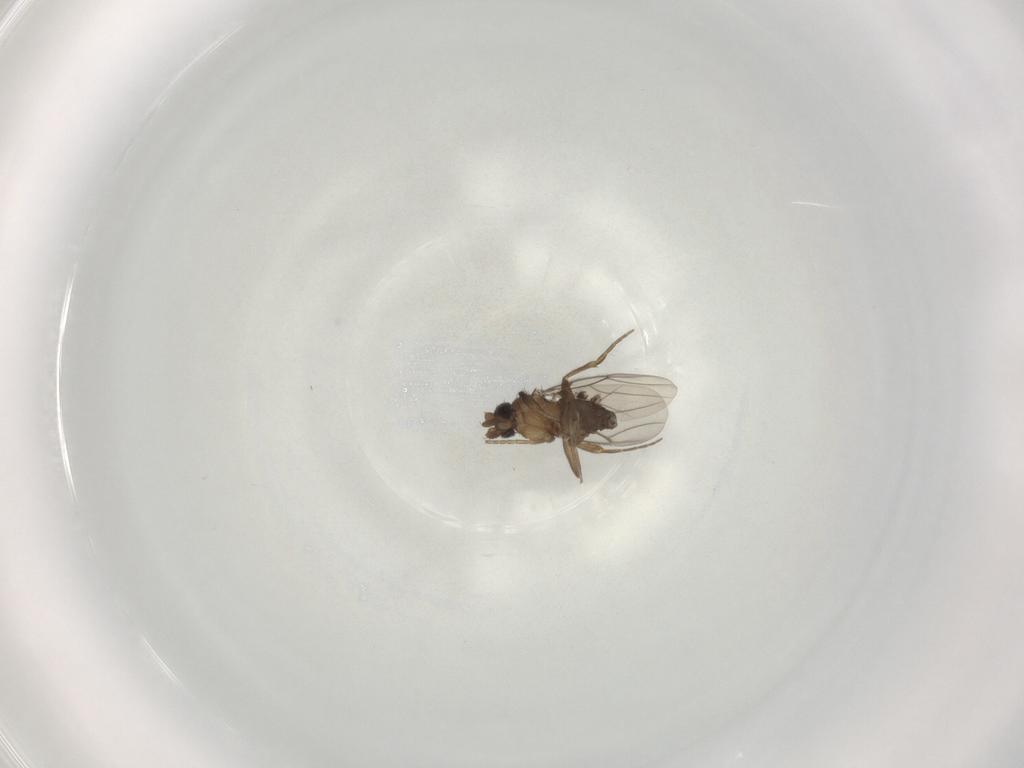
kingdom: Animalia
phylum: Arthropoda
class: Insecta
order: Diptera
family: Phoridae
